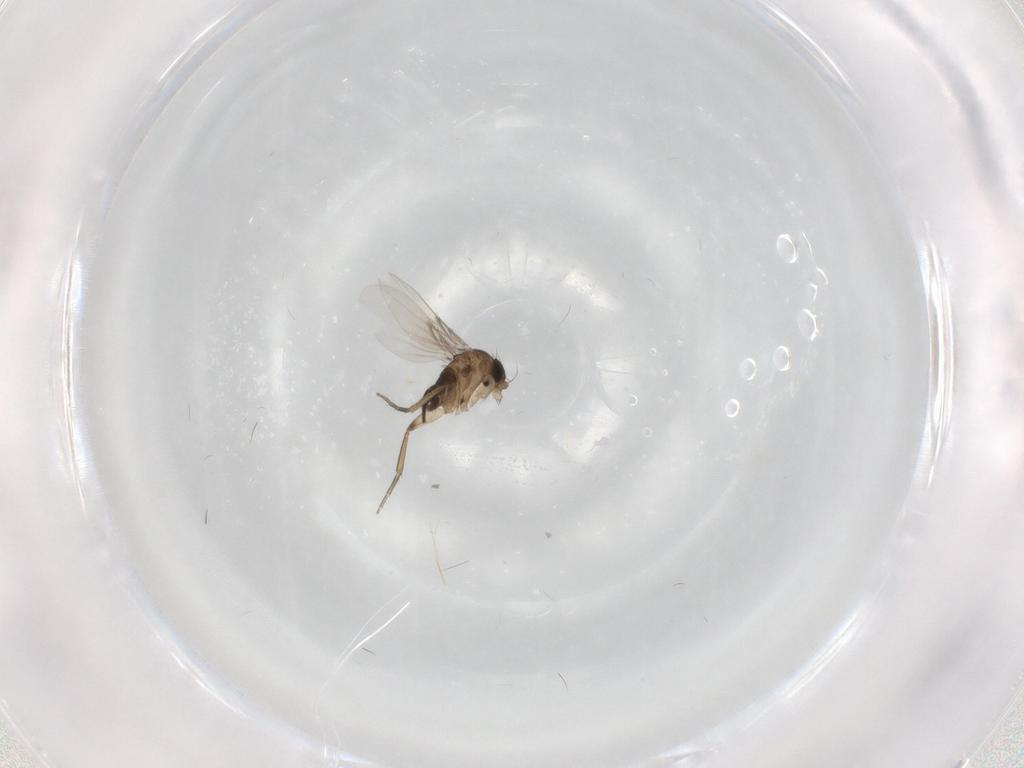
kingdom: Animalia
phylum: Arthropoda
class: Insecta
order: Diptera
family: Phoridae
